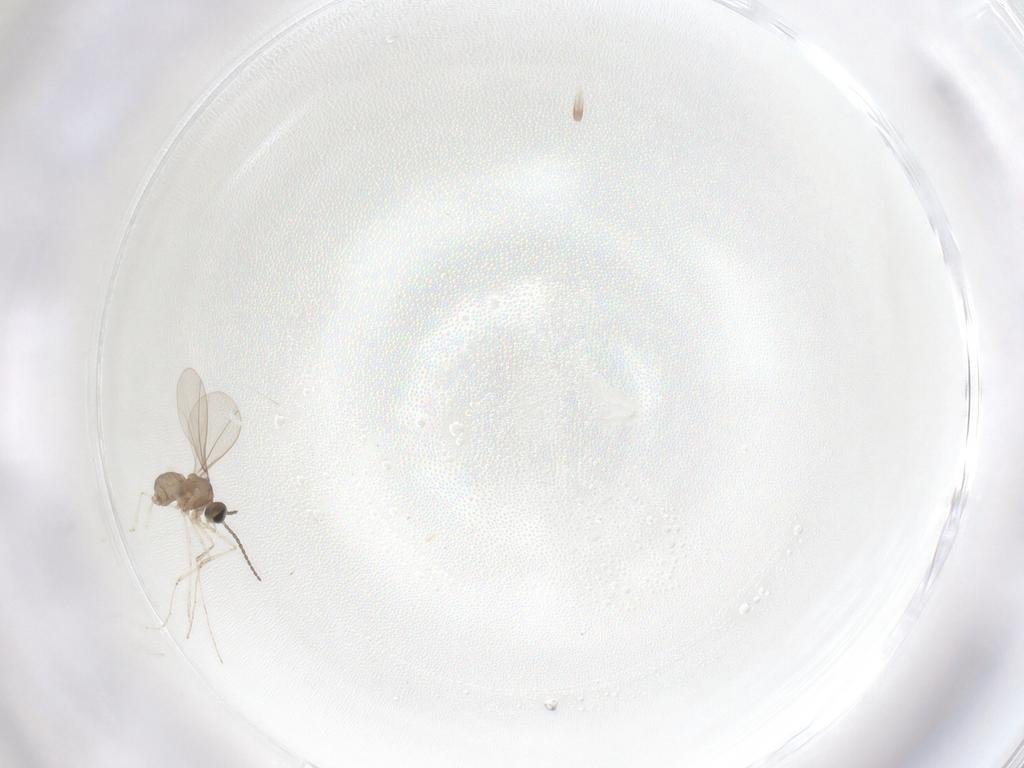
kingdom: Animalia
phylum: Arthropoda
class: Insecta
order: Diptera
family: Cecidomyiidae
